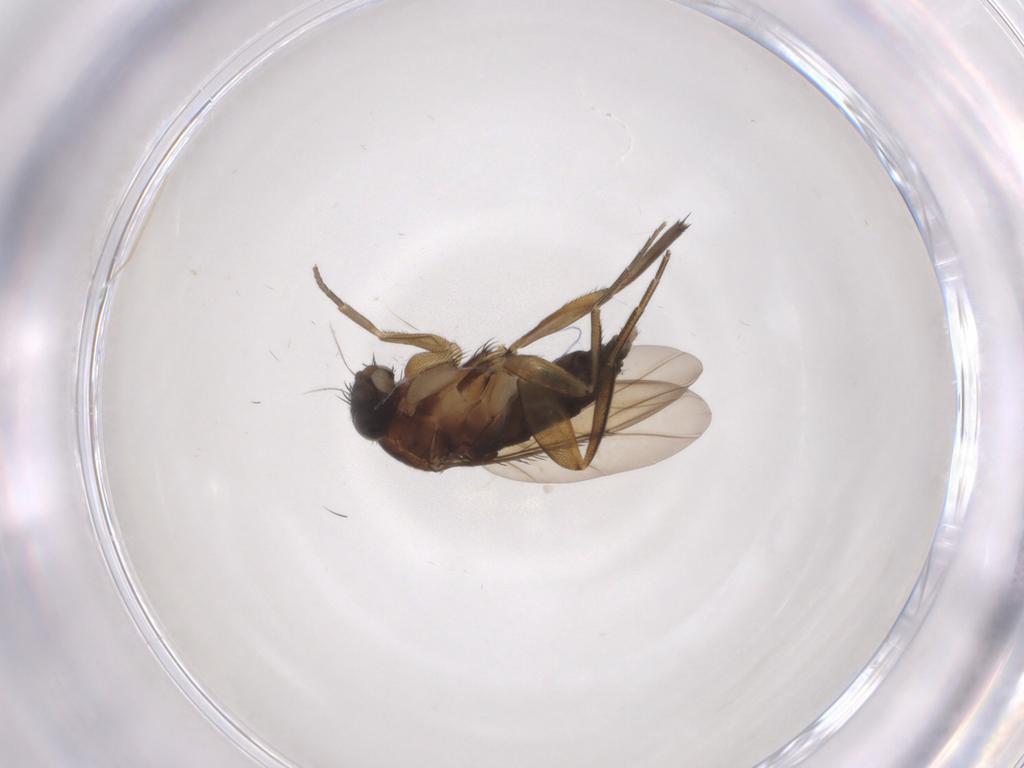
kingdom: Animalia
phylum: Arthropoda
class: Insecta
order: Diptera
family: Phoridae
